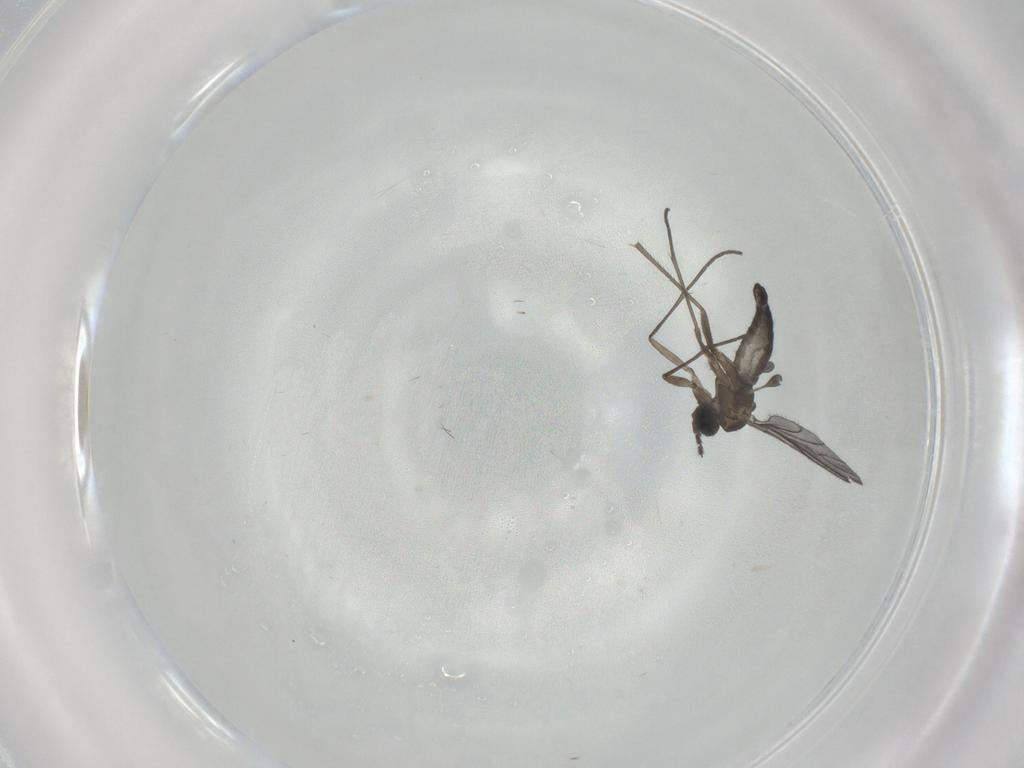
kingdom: Animalia
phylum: Arthropoda
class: Insecta
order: Diptera
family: Sciaridae
